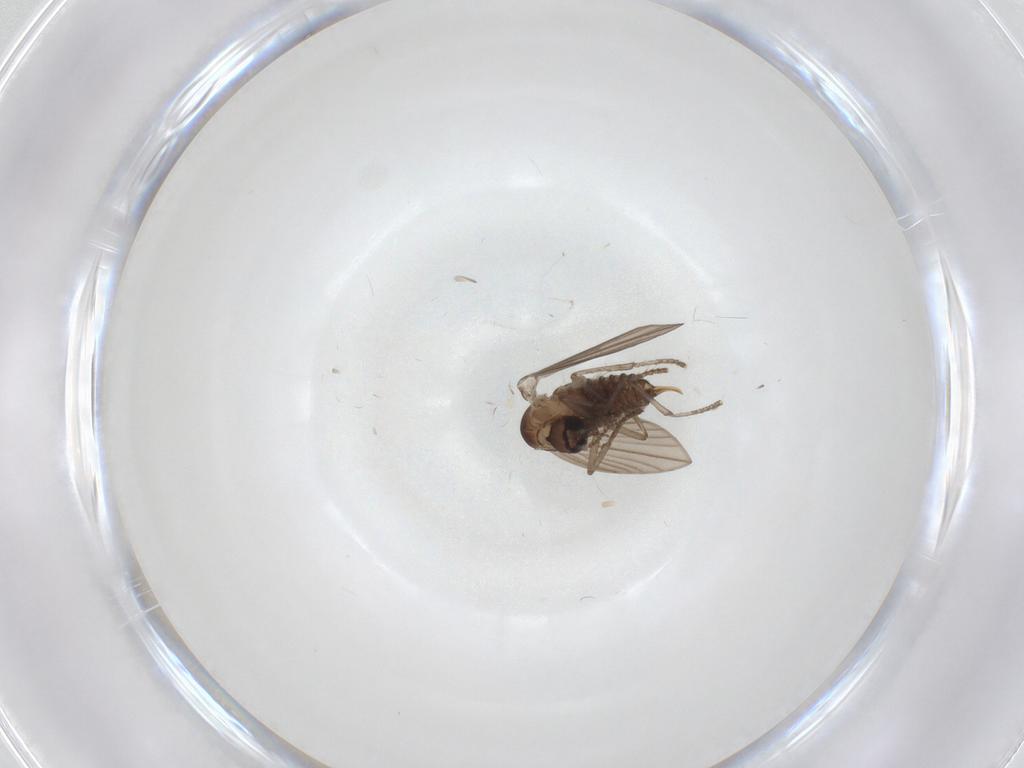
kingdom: Animalia
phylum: Arthropoda
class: Insecta
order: Diptera
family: Psychodidae
